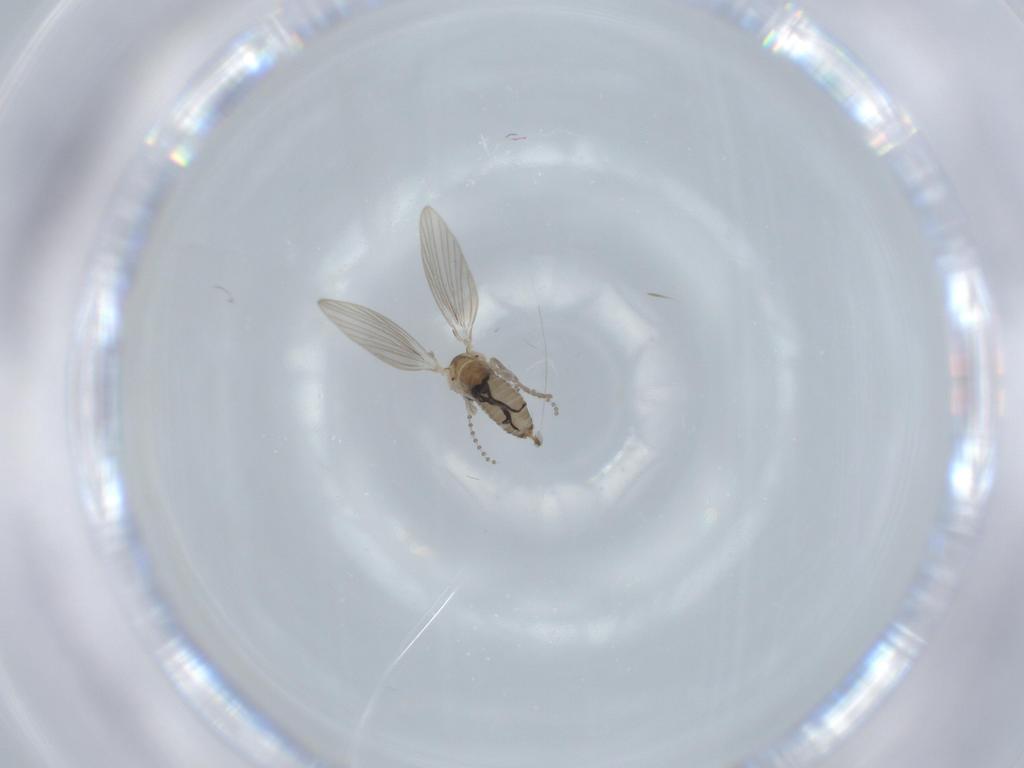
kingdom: Animalia
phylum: Arthropoda
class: Insecta
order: Diptera
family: Psychodidae
